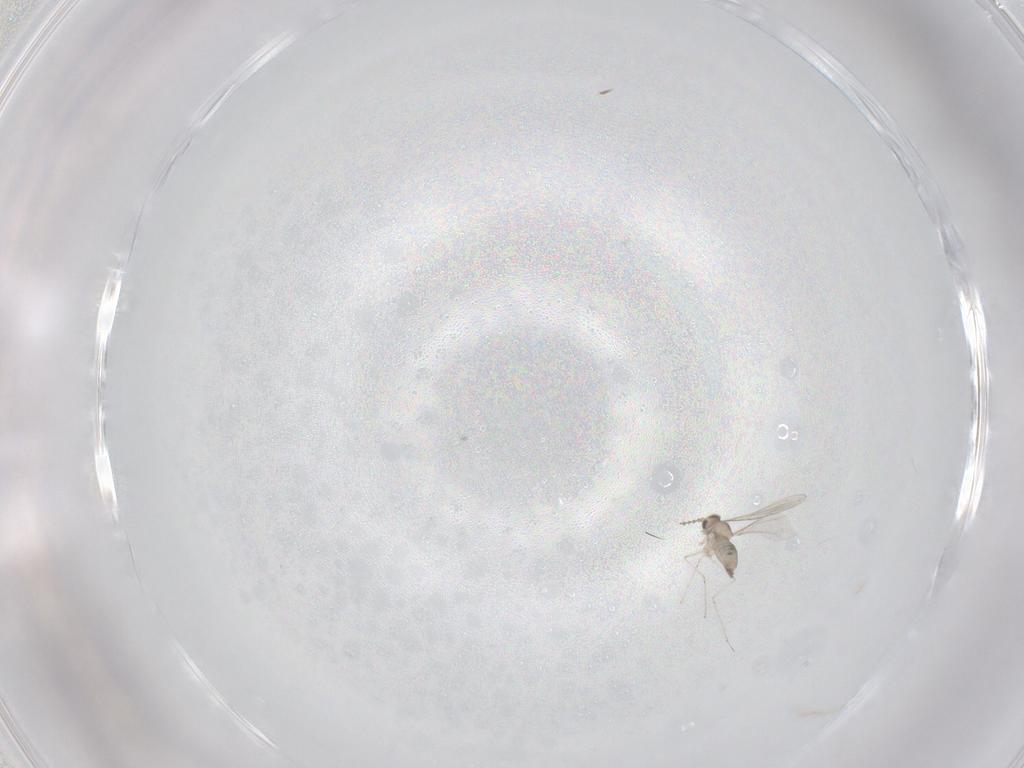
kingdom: Animalia
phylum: Arthropoda
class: Insecta
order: Diptera
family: Cecidomyiidae
